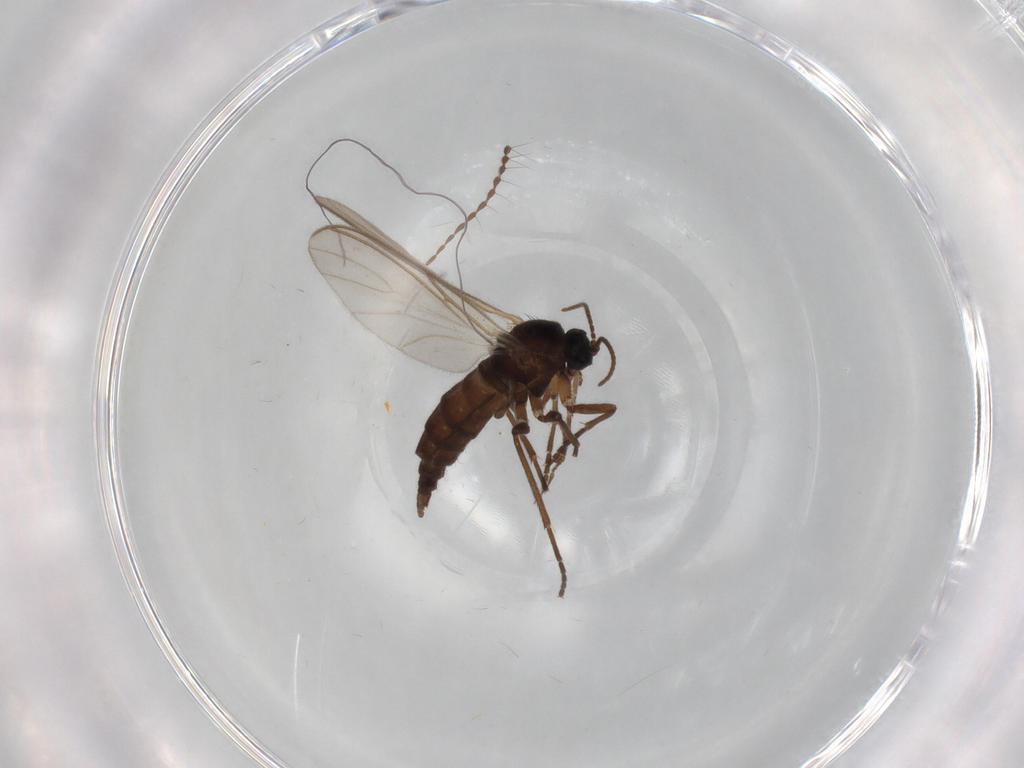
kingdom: Animalia
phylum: Arthropoda
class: Insecta
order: Diptera
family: Sciaridae
